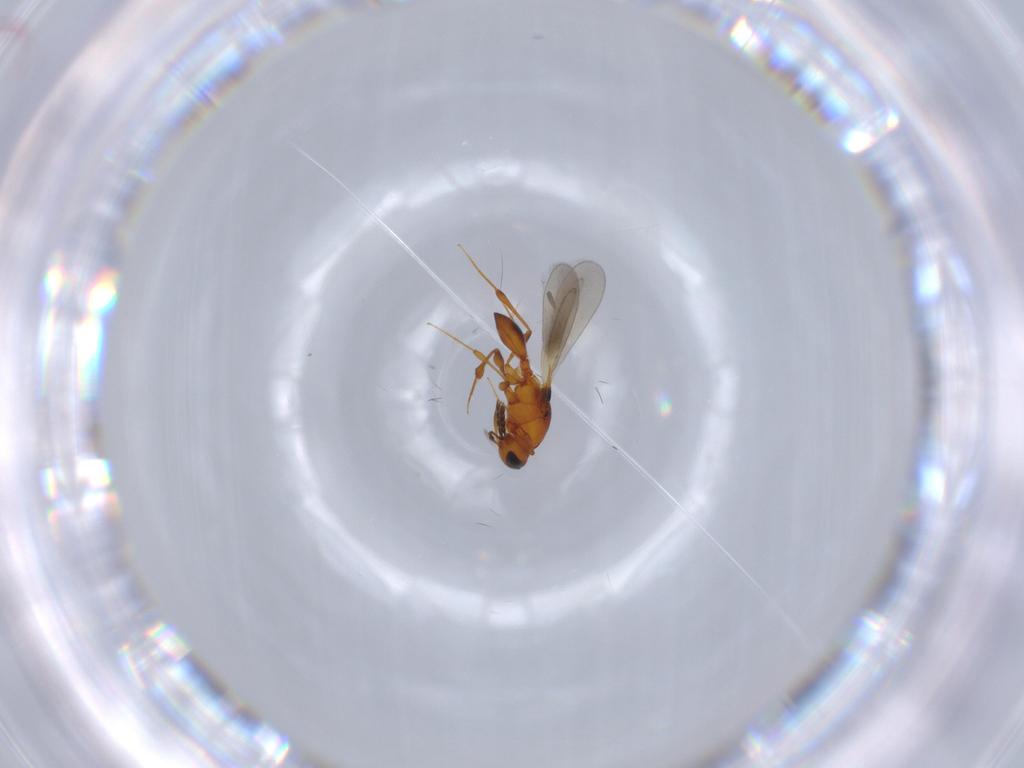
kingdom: Animalia
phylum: Arthropoda
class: Insecta
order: Hymenoptera
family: Platygastridae
